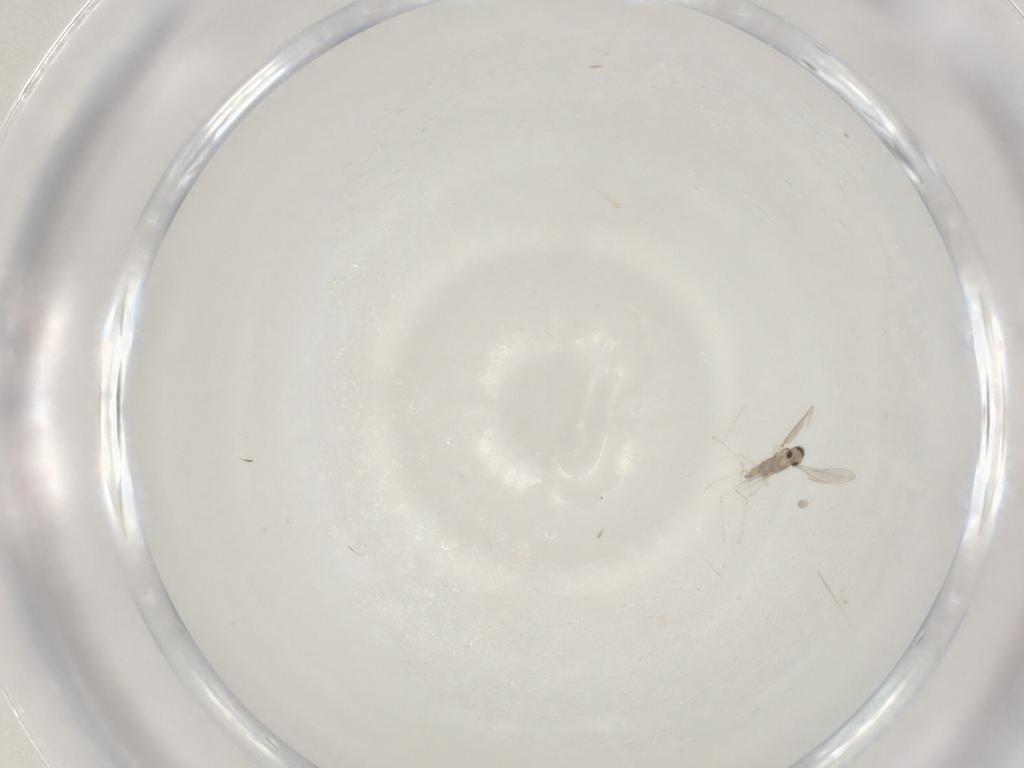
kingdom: Animalia
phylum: Arthropoda
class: Insecta
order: Diptera
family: Cecidomyiidae
